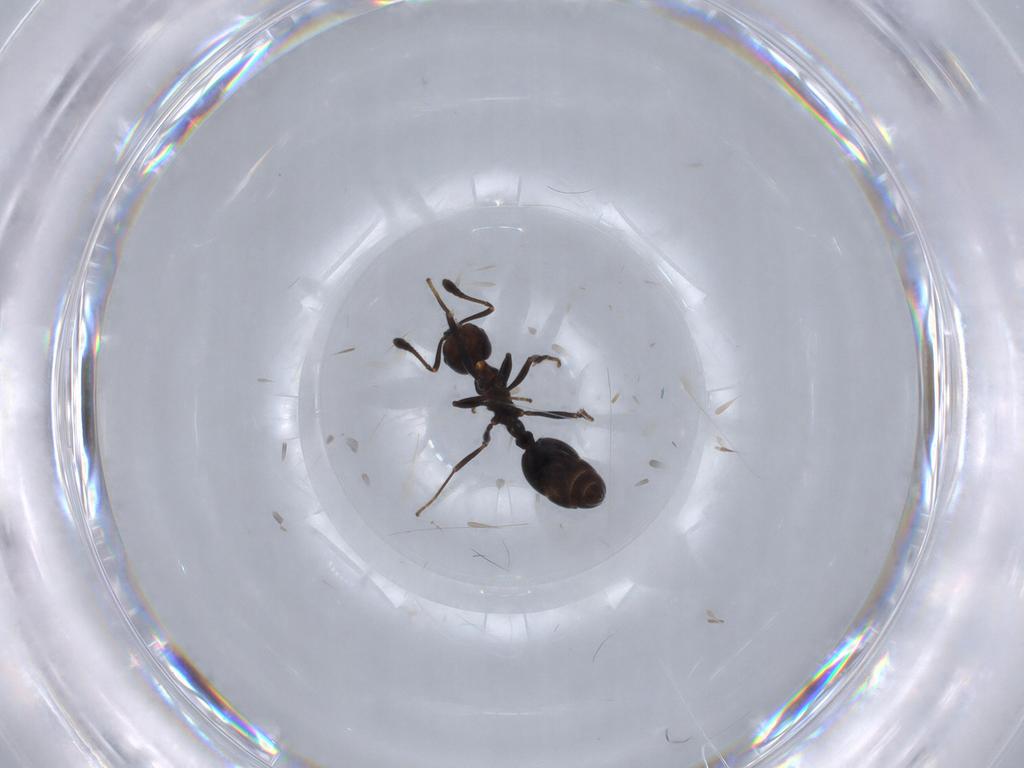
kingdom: Animalia
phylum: Arthropoda
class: Insecta
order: Hymenoptera
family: Formicidae
